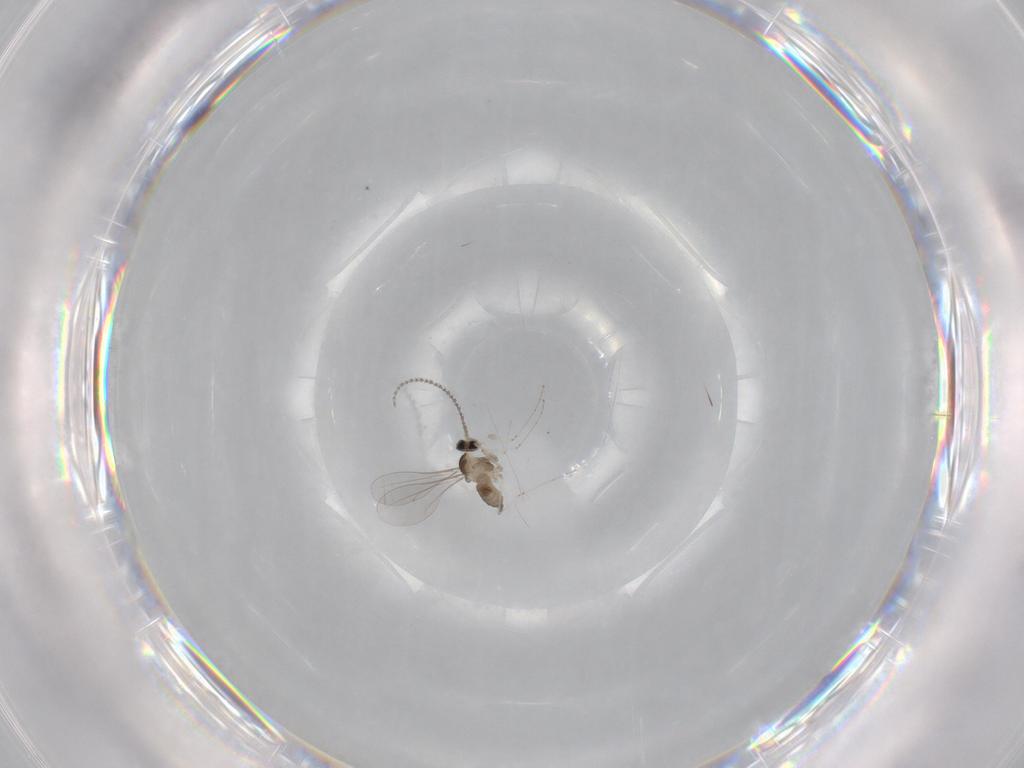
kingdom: Animalia
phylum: Arthropoda
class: Insecta
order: Diptera
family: Cecidomyiidae
